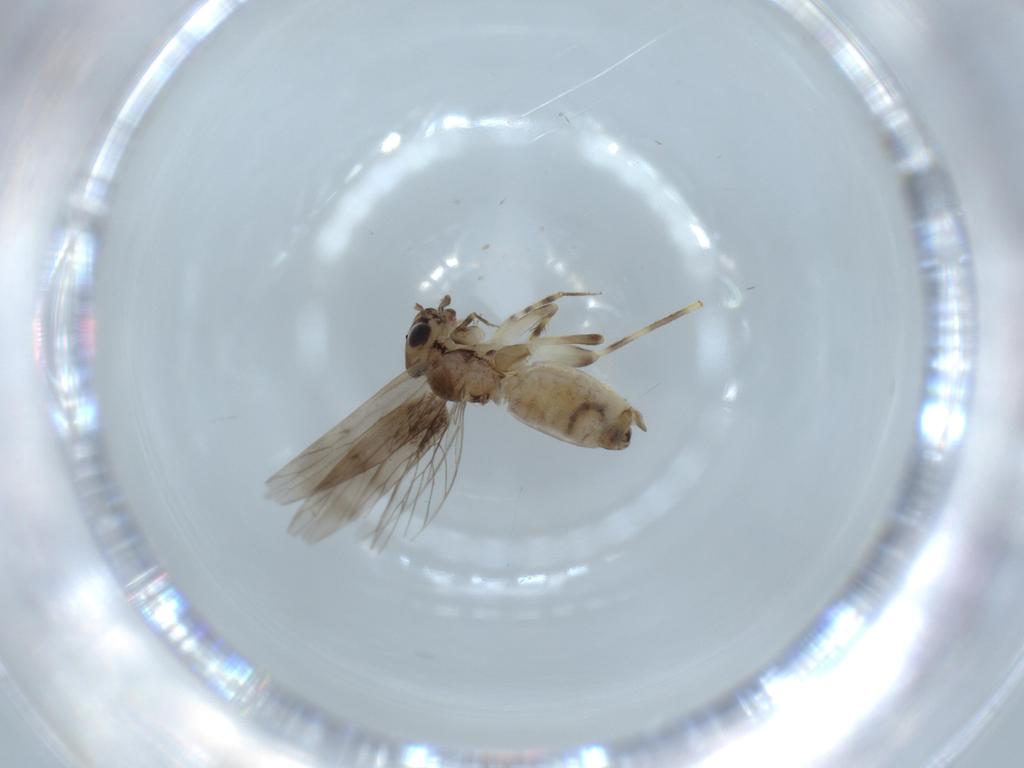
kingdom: Animalia
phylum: Arthropoda
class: Insecta
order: Psocodea
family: Lepidopsocidae
